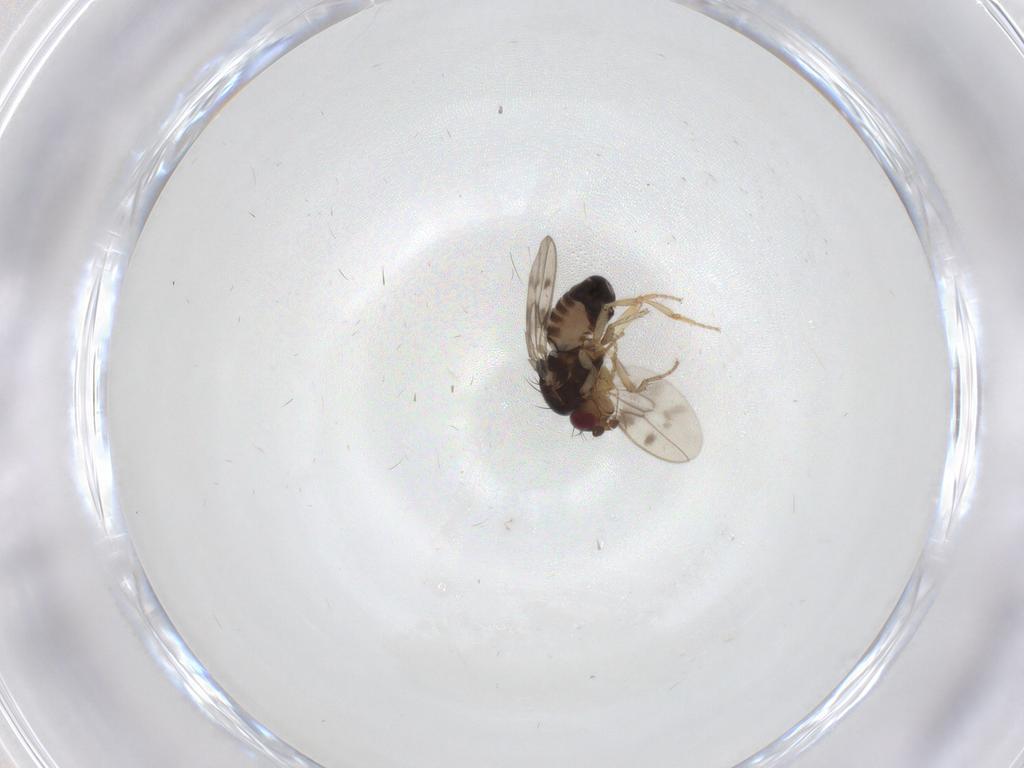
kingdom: Animalia
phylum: Arthropoda
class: Insecta
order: Diptera
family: Sphaeroceridae
